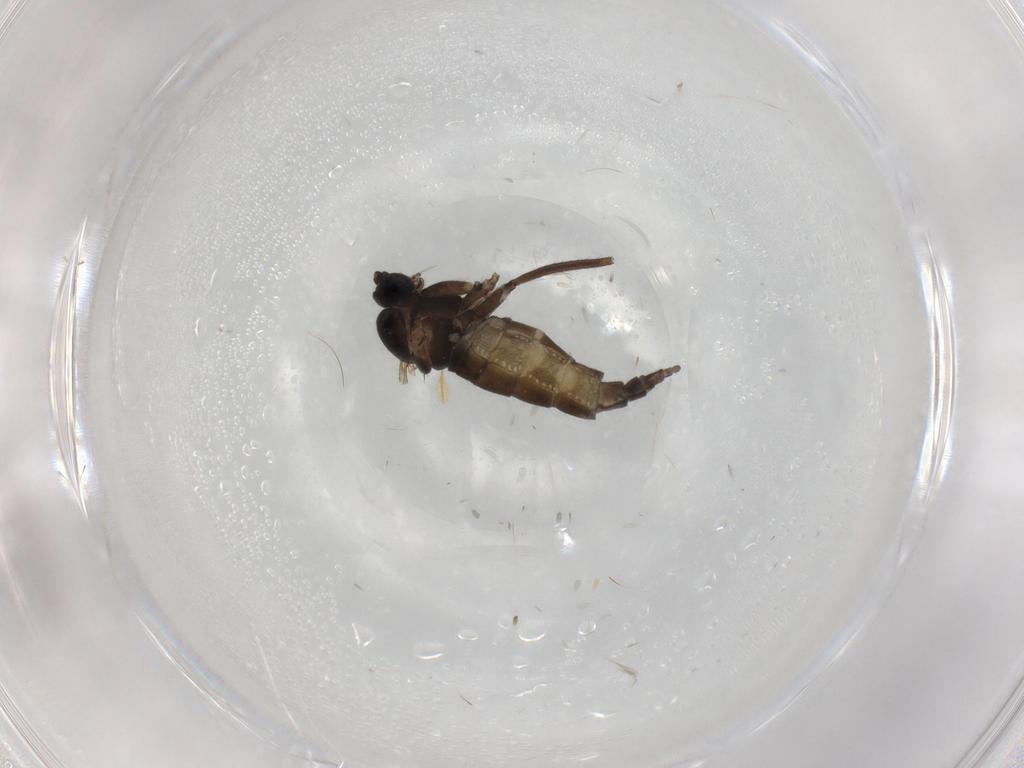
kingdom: Animalia
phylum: Arthropoda
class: Insecta
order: Diptera
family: Sciaridae
